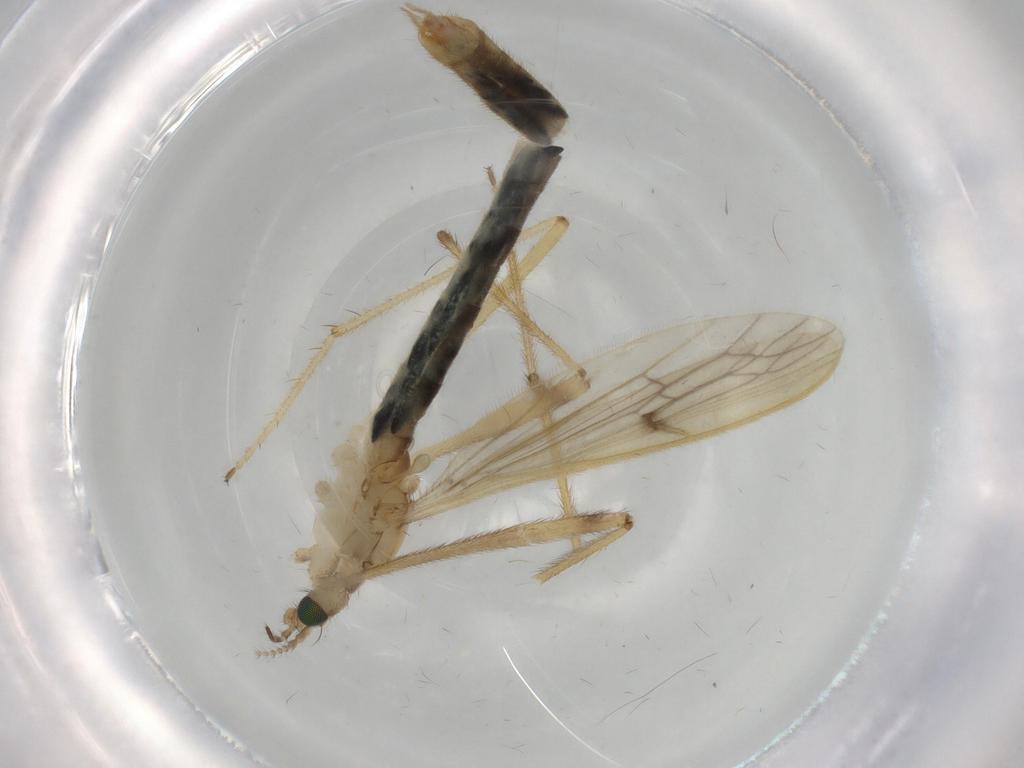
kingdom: Animalia
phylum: Arthropoda
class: Insecta
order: Diptera
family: Limoniidae
